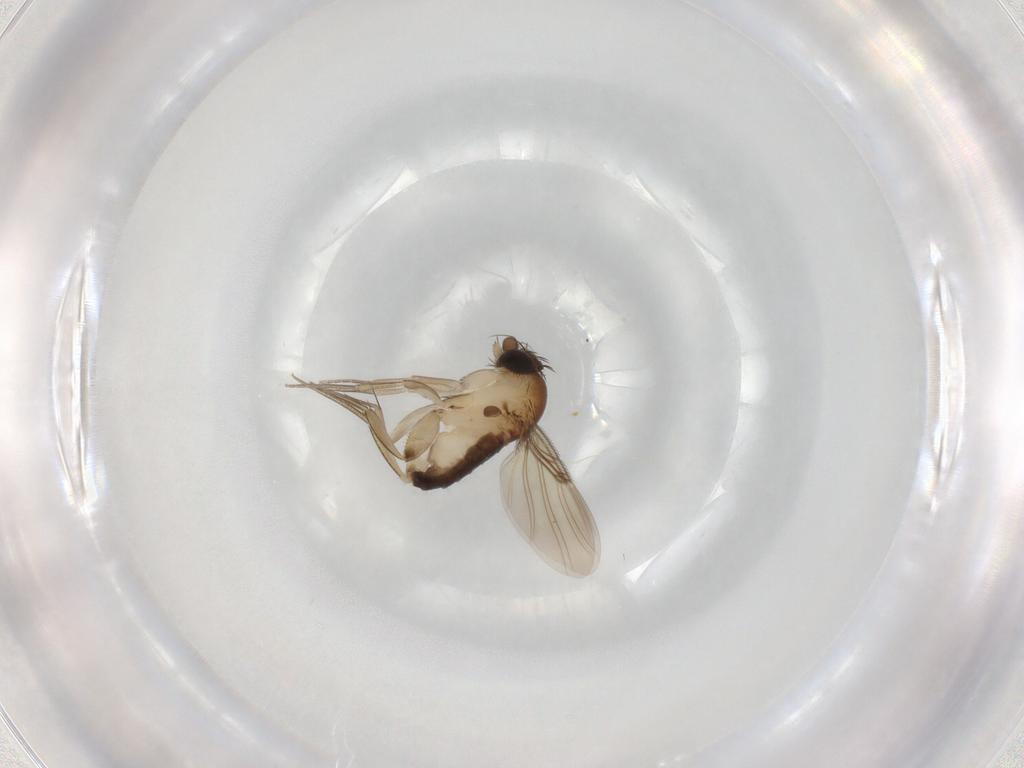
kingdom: Animalia
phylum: Arthropoda
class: Insecta
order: Diptera
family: Phoridae
